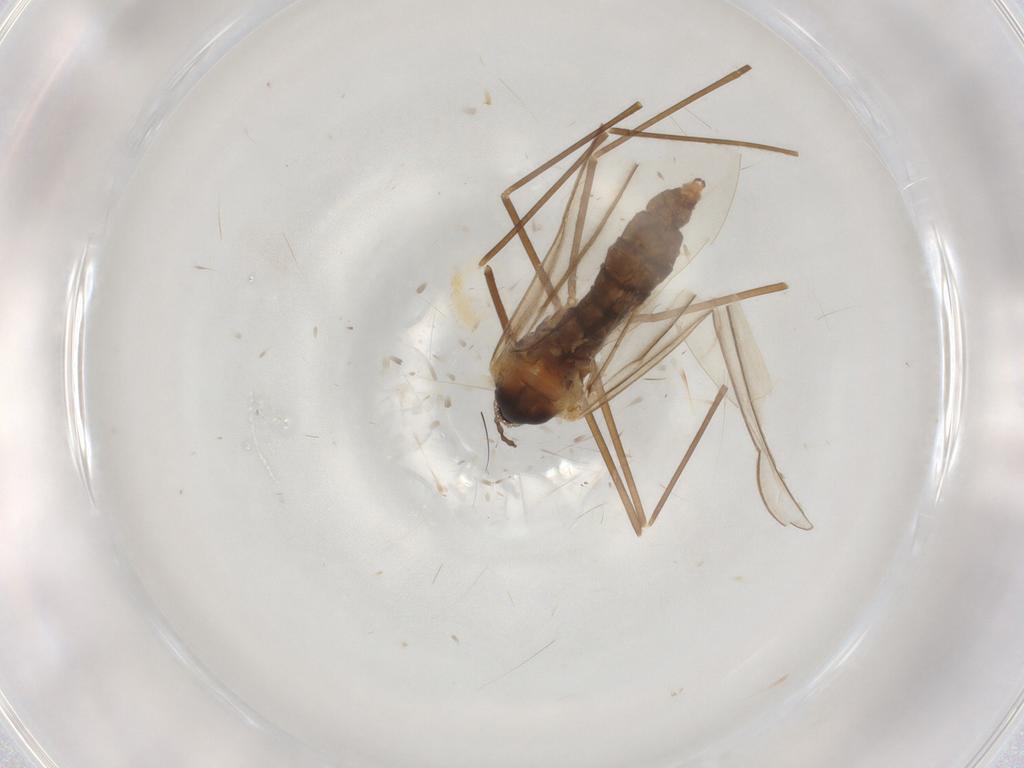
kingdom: Animalia
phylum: Arthropoda
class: Insecta
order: Diptera
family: Cecidomyiidae
